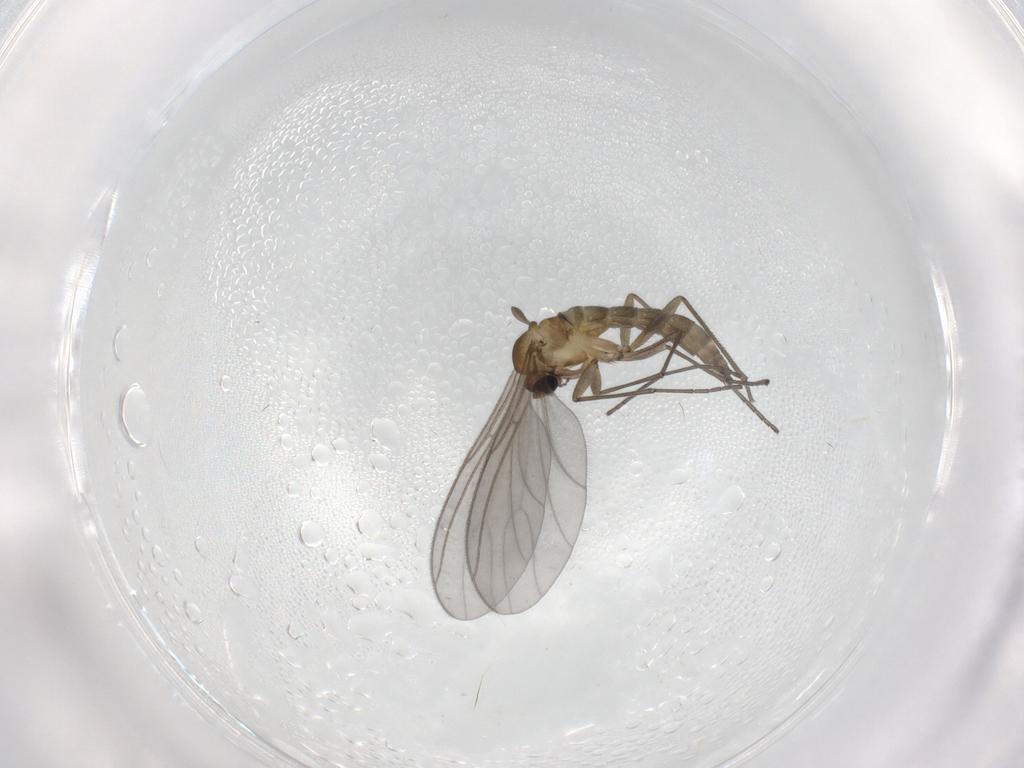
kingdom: Animalia
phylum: Arthropoda
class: Insecta
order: Diptera
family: Sciaridae
